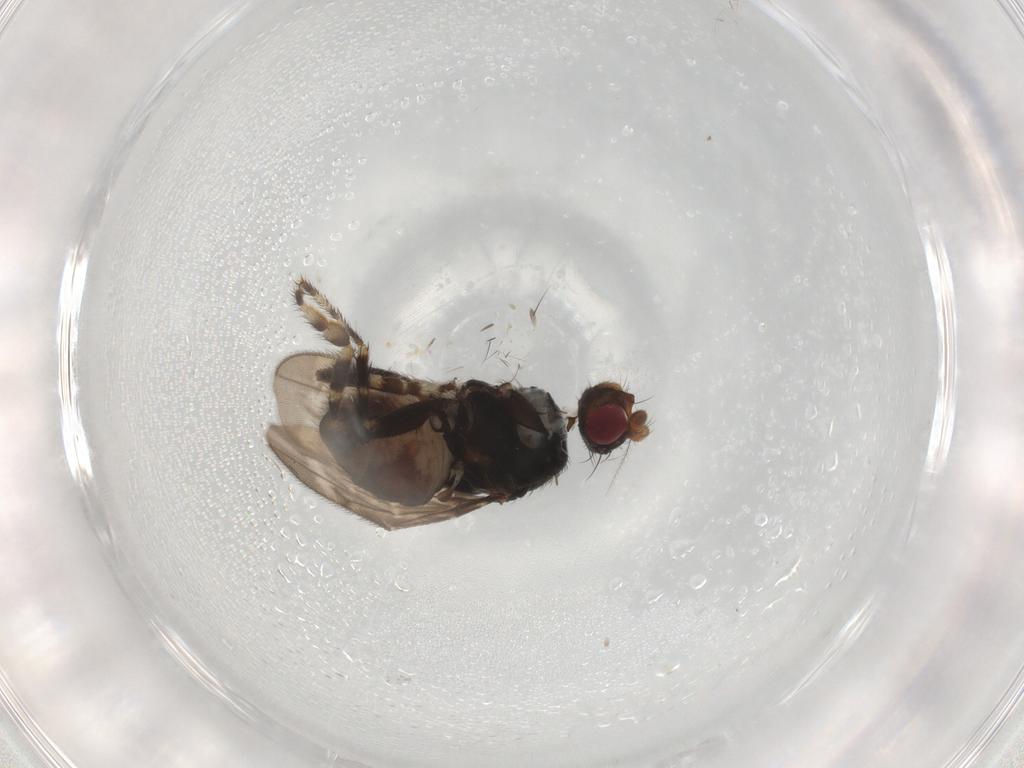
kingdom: Animalia
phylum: Arthropoda
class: Insecta
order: Diptera
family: Sphaeroceridae
